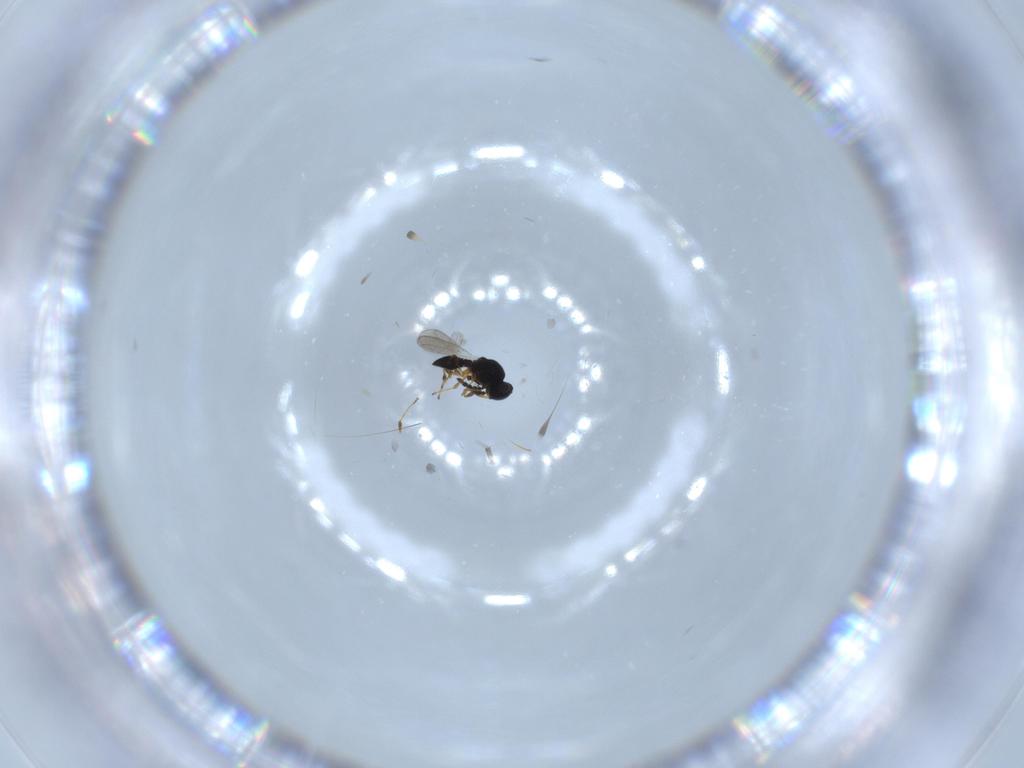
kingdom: Animalia
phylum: Arthropoda
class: Insecta
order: Hymenoptera
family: Platygastridae
